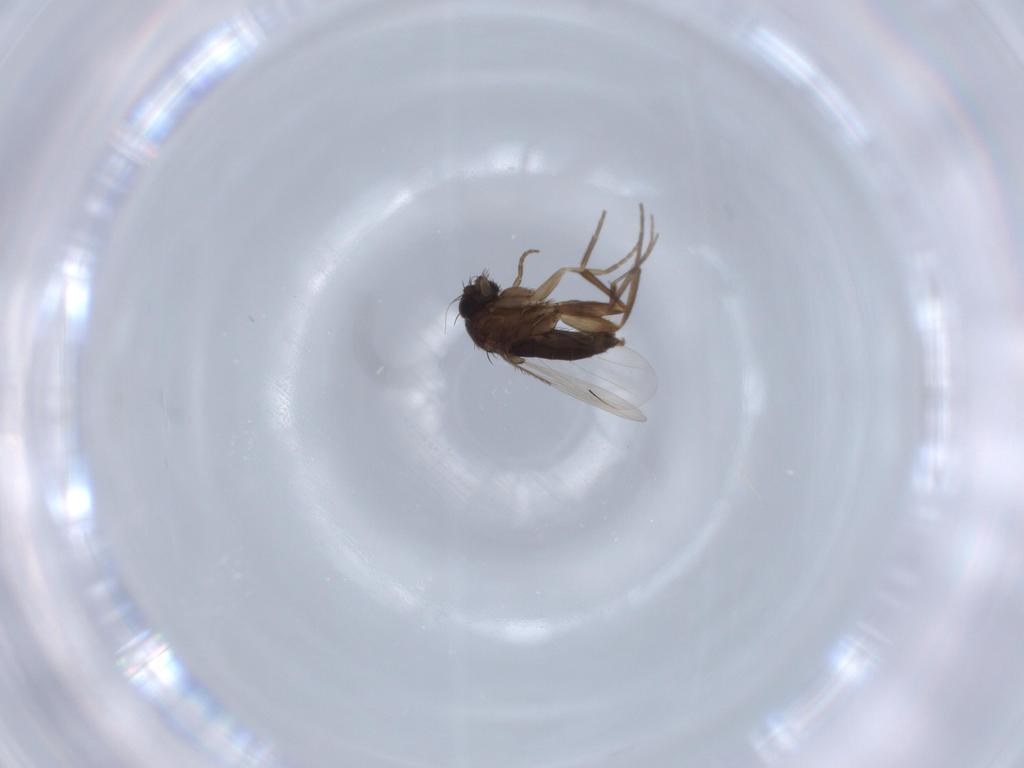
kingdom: Animalia
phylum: Arthropoda
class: Insecta
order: Diptera
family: Phoridae
